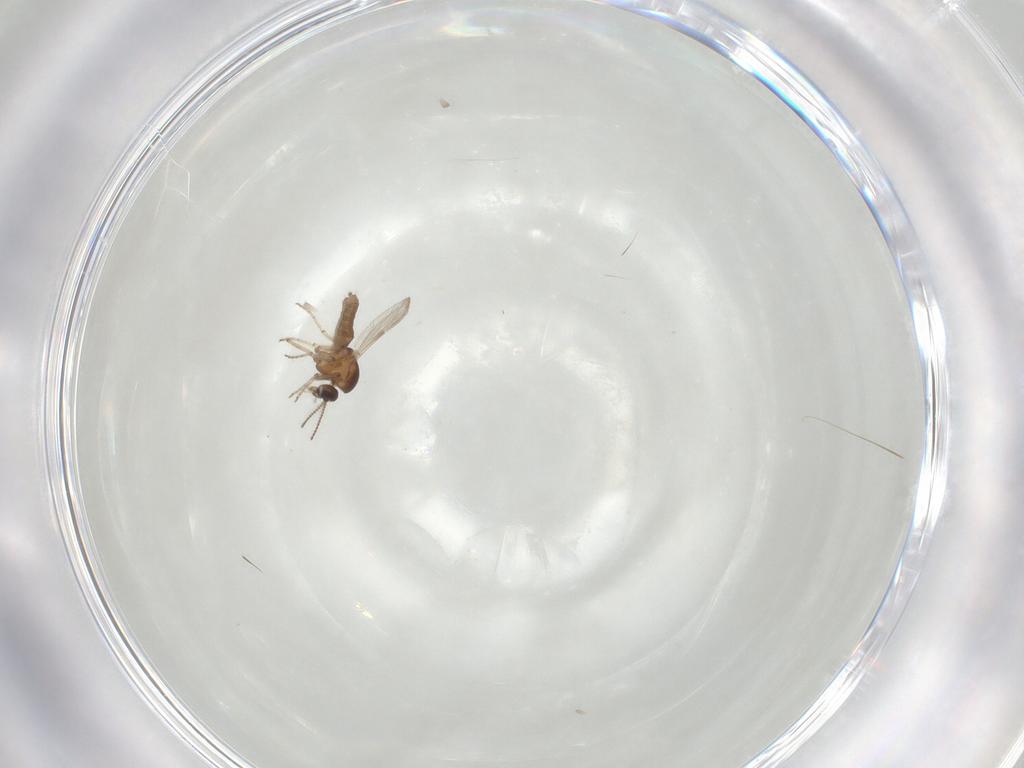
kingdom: Animalia
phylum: Arthropoda
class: Insecta
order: Diptera
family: Ceratopogonidae
